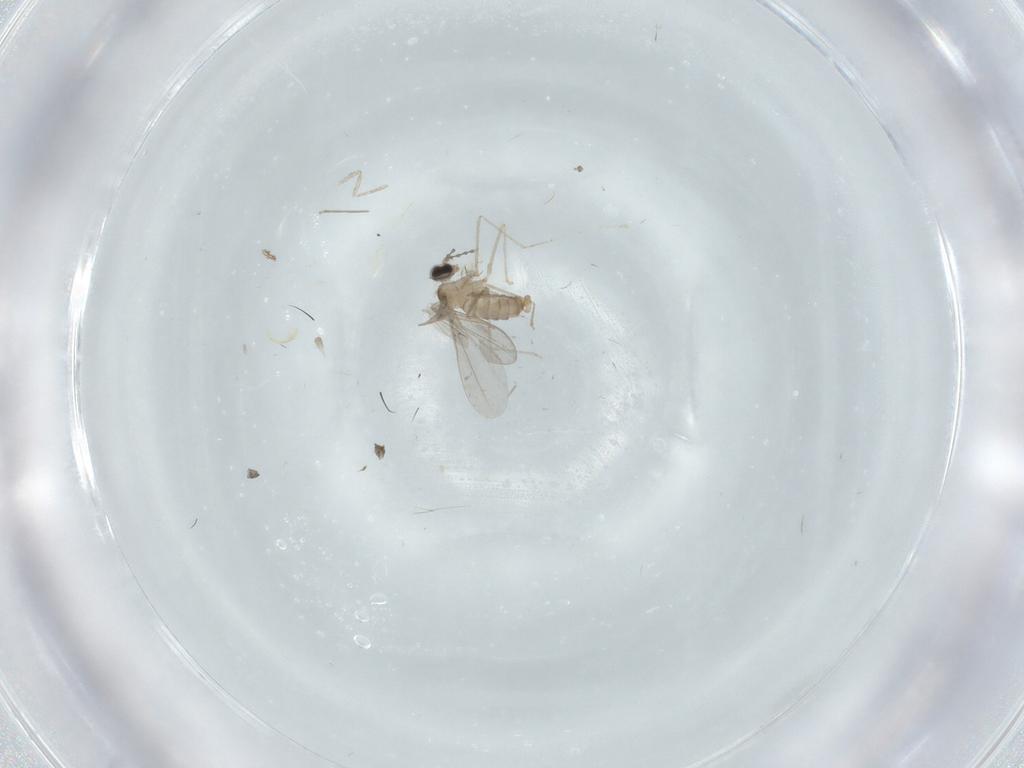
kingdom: Animalia
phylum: Arthropoda
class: Insecta
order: Diptera
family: Cecidomyiidae
